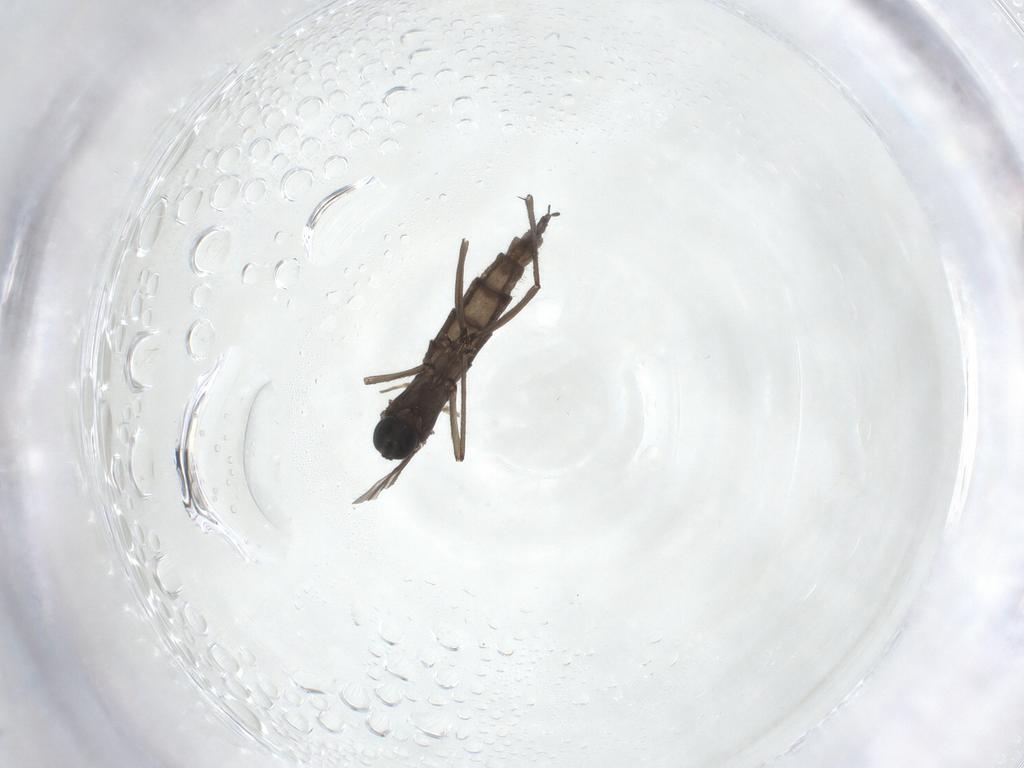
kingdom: Animalia
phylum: Arthropoda
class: Insecta
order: Diptera
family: Sciaridae
